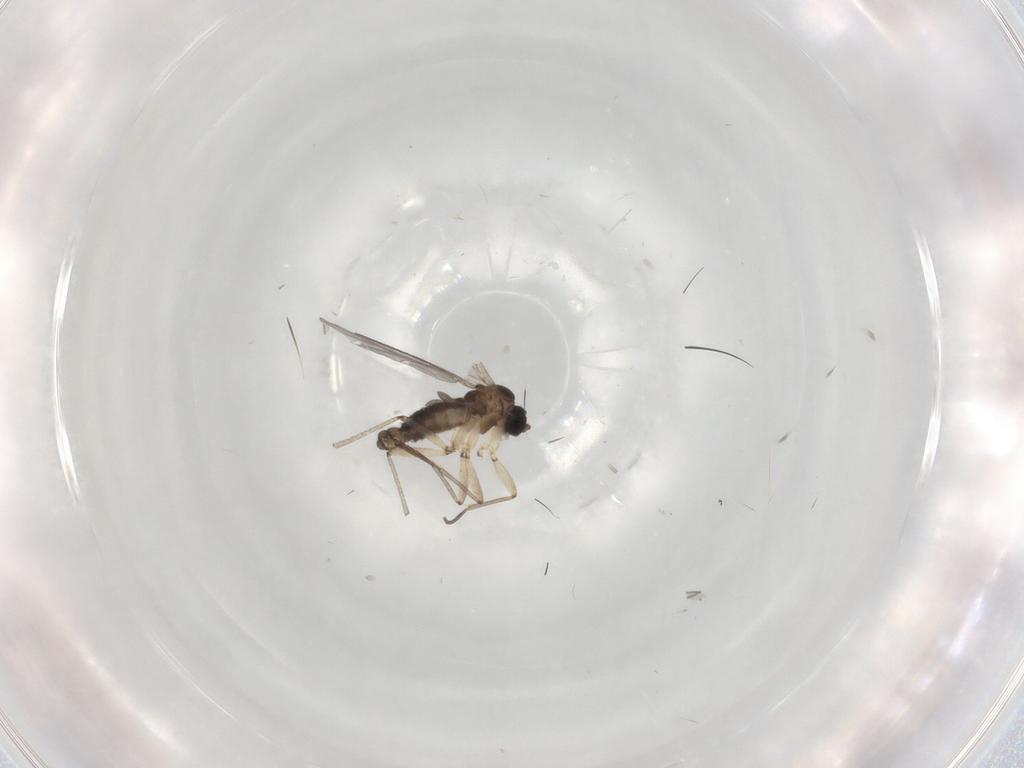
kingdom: Animalia
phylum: Arthropoda
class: Insecta
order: Diptera
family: Sciaridae
